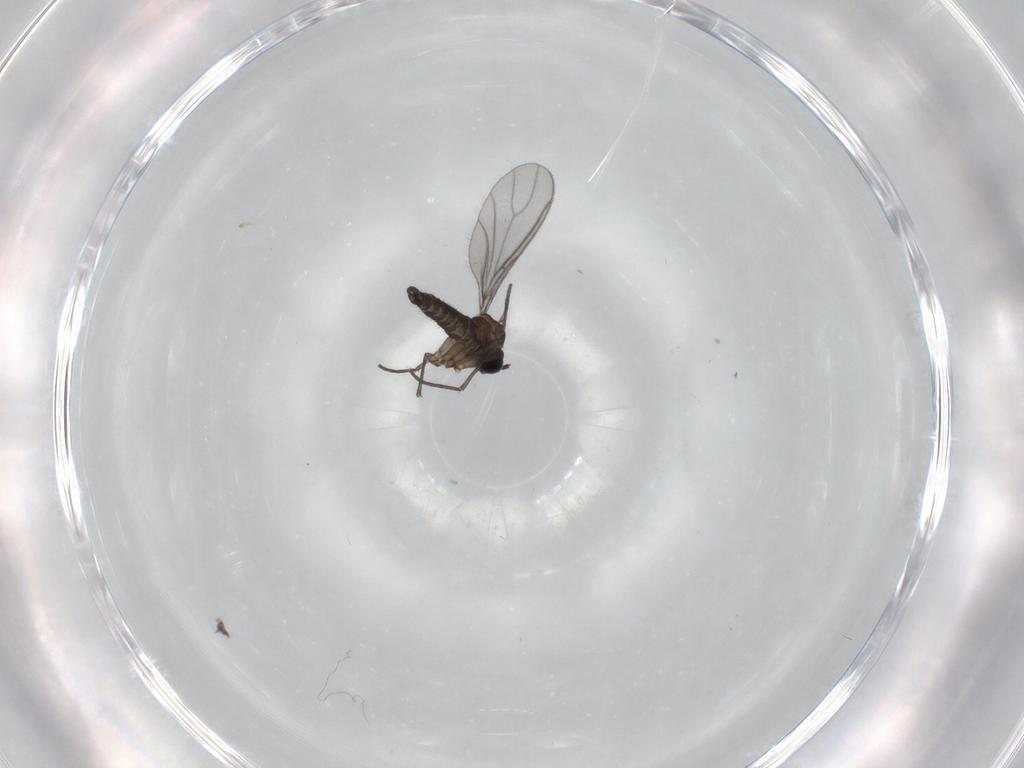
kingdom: Animalia
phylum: Arthropoda
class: Insecta
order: Diptera
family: Sciaridae
